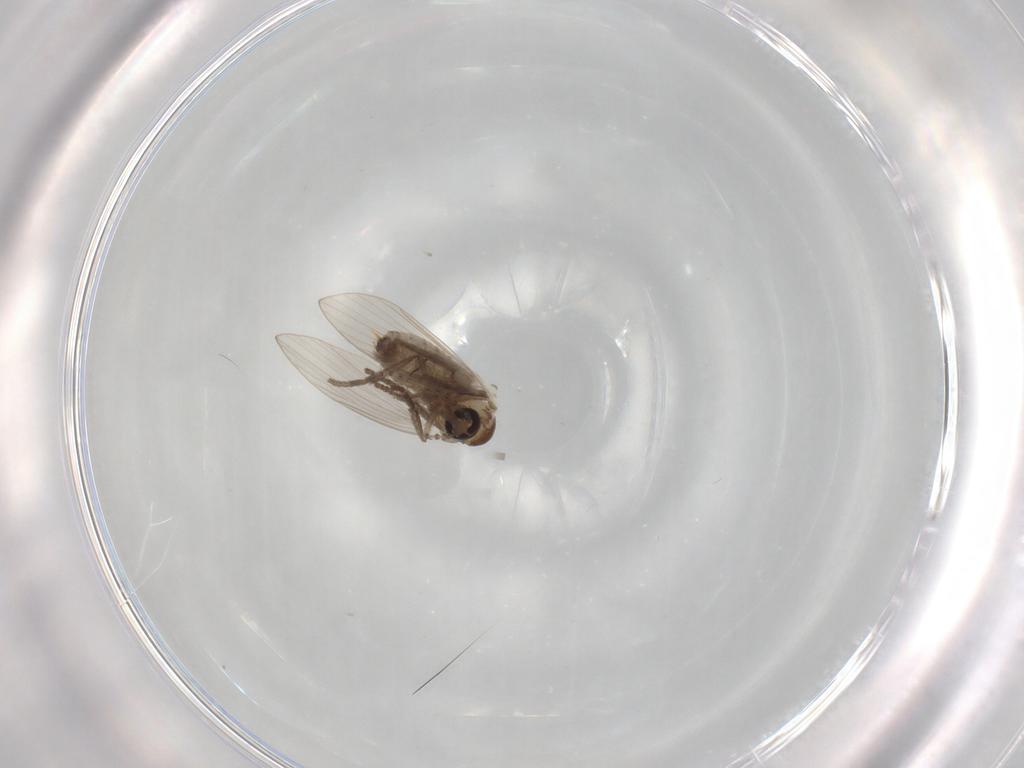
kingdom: Animalia
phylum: Arthropoda
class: Insecta
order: Diptera
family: Psychodidae
